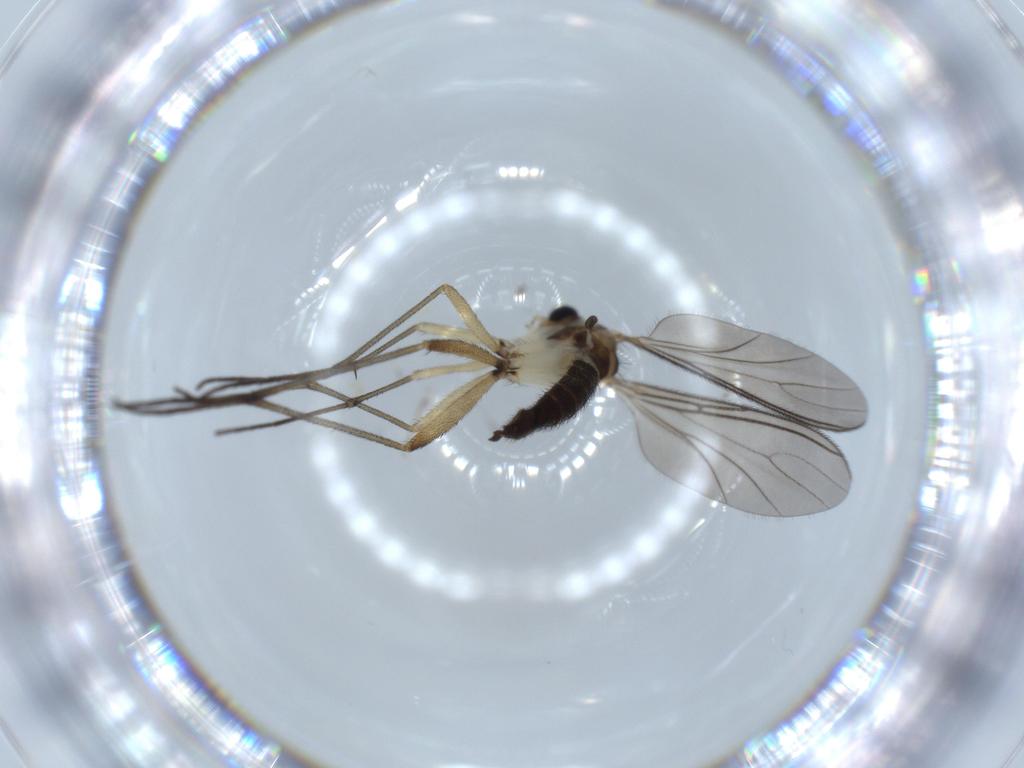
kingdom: Animalia
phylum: Arthropoda
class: Insecta
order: Diptera
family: Sciaridae
